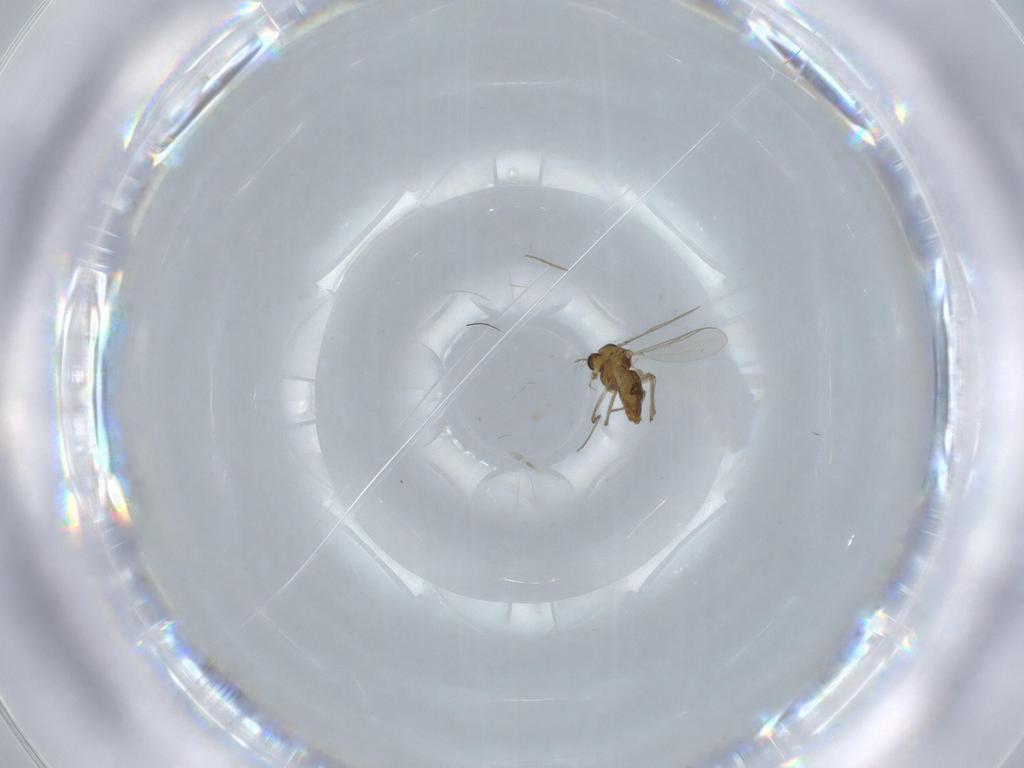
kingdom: Animalia
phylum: Arthropoda
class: Insecta
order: Diptera
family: Chironomidae
